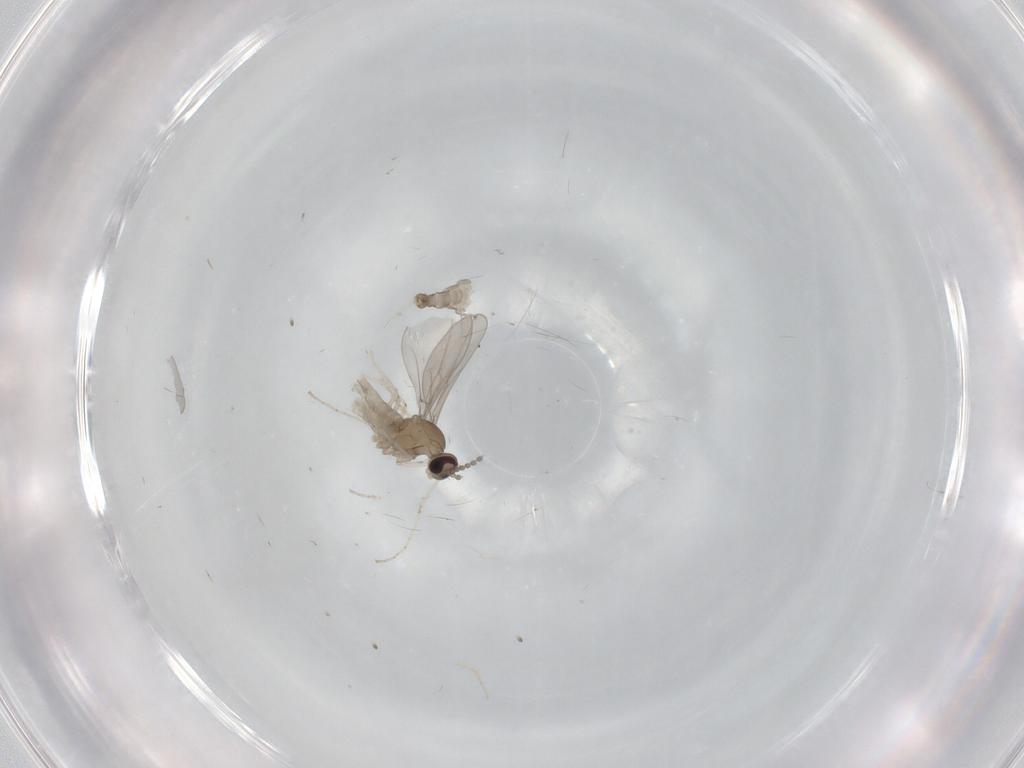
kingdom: Animalia
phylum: Arthropoda
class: Insecta
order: Diptera
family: Cecidomyiidae
